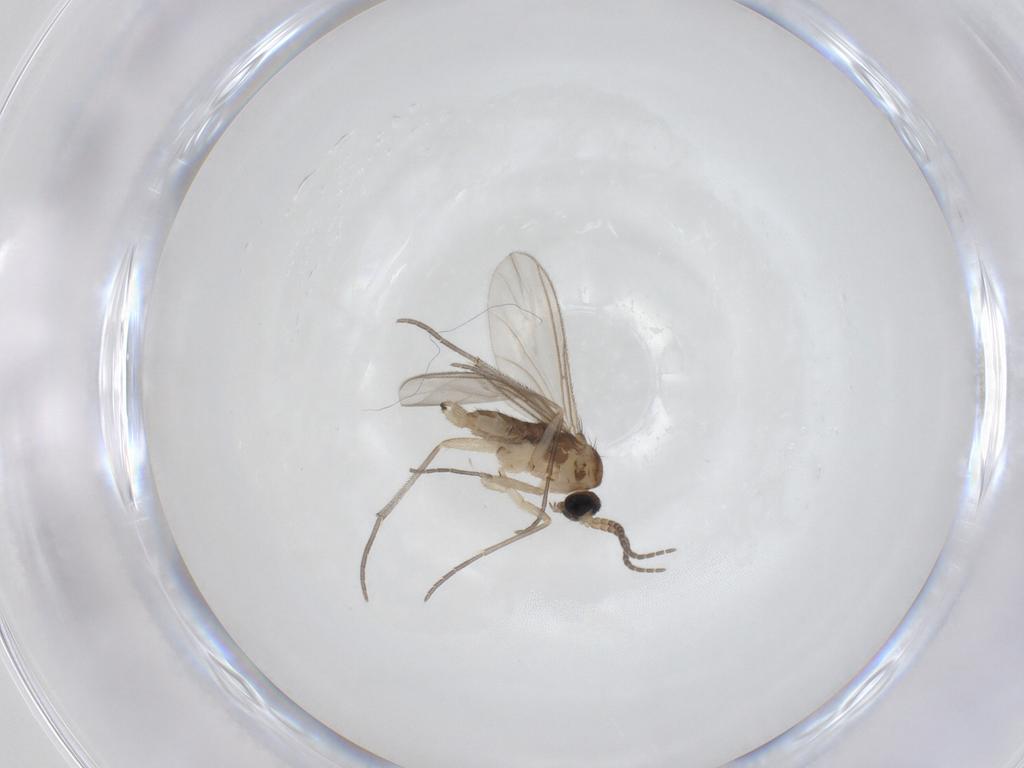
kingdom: Animalia
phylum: Arthropoda
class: Insecta
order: Diptera
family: Sciaridae
